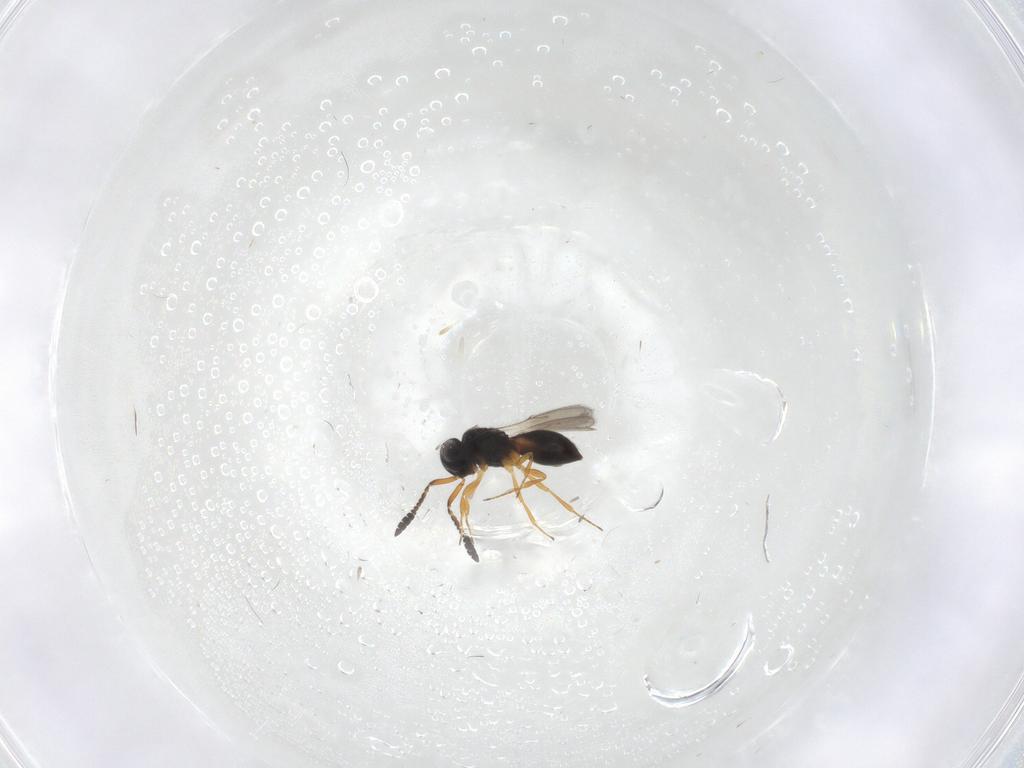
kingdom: Animalia
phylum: Arthropoda
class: Insecta
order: Hymenoptera
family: Scelionidae
